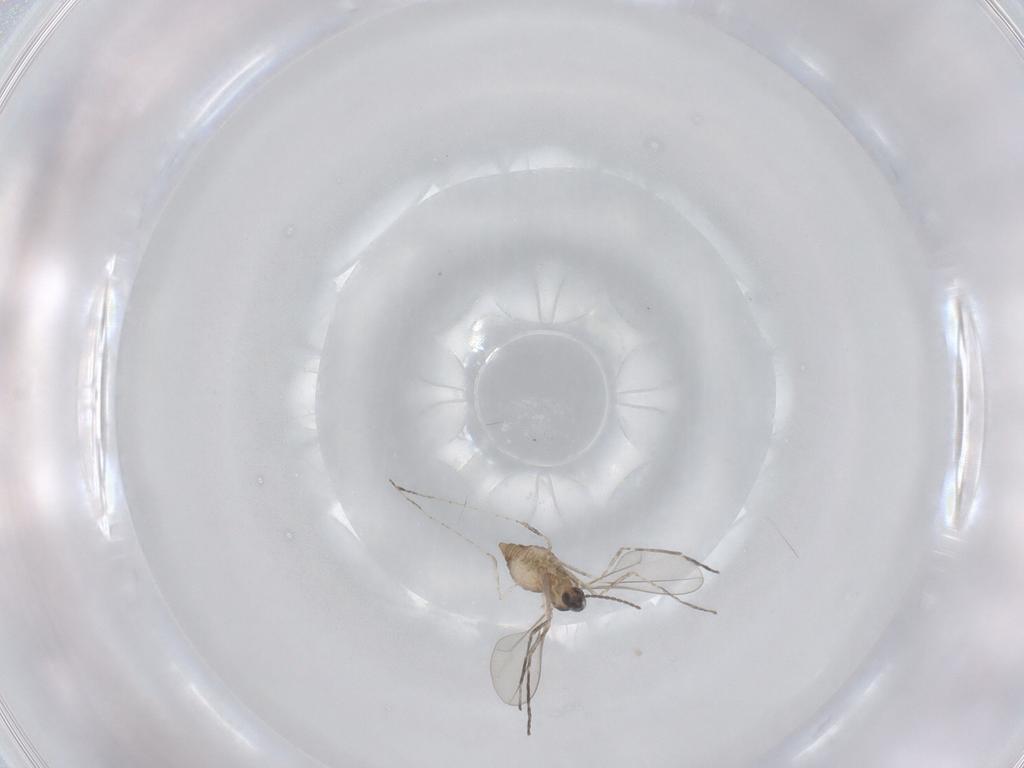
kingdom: Animalia
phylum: Arthropoda
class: Insecta
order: Diptera
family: Cecidomyiidae
